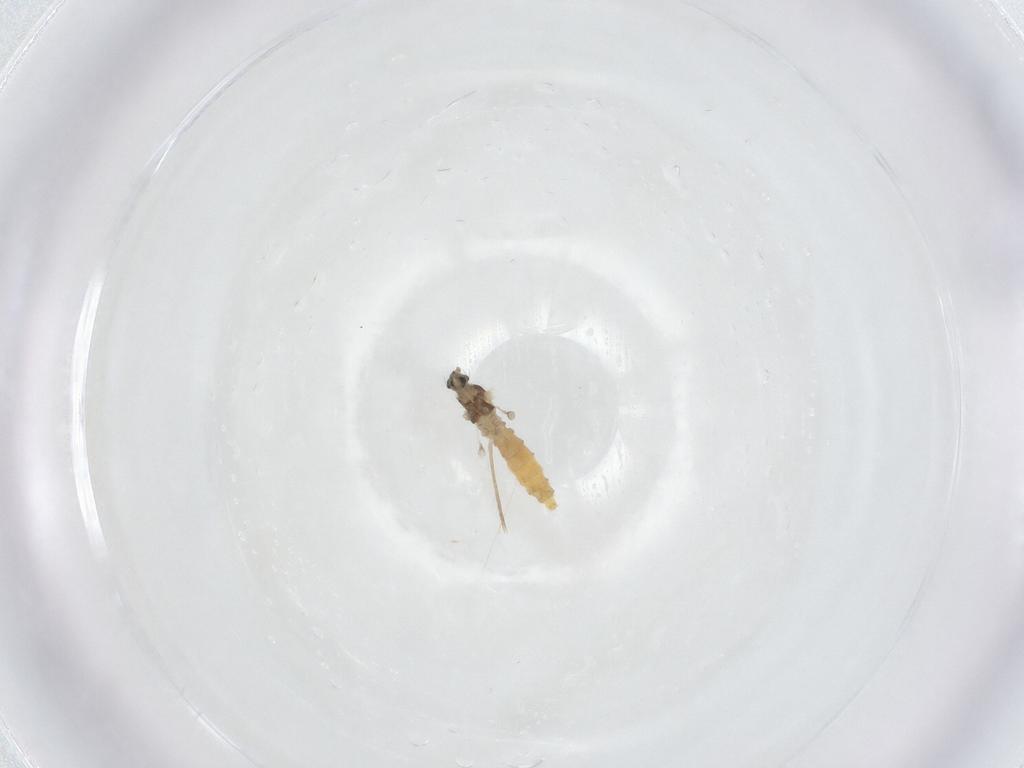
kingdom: Animalia
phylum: Arthropoda
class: Insecta
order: Diptera
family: Cecidomyiidae
